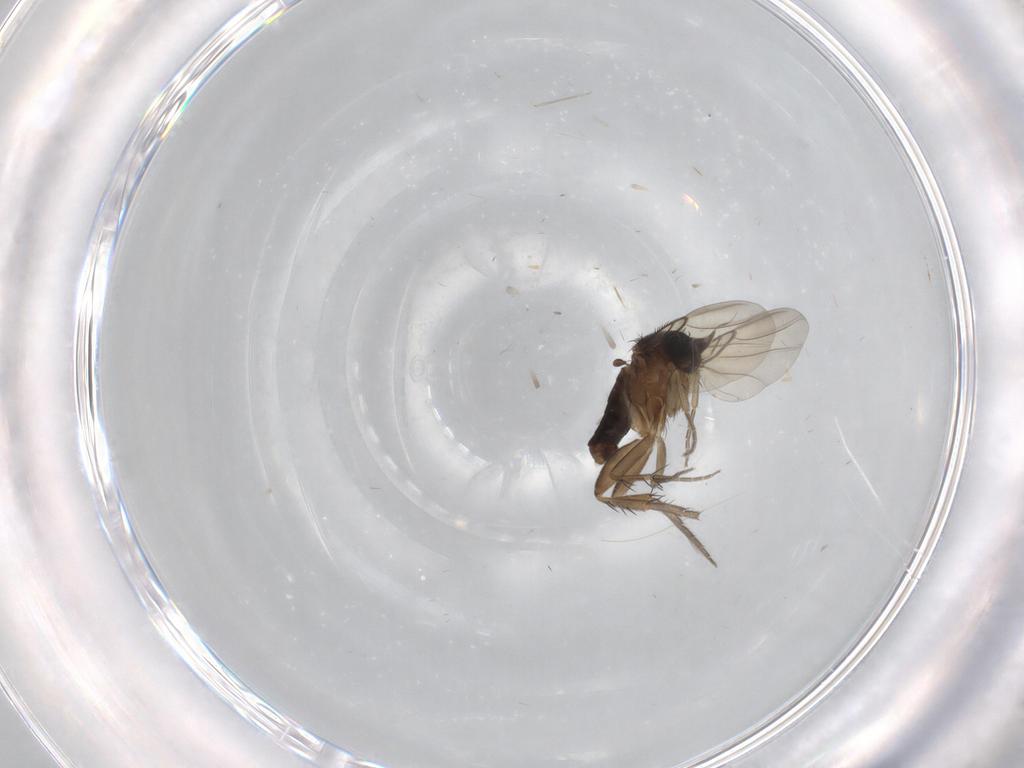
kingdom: Animalia
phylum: Arthropoda
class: Insecta
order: Diptera
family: Phoridae
